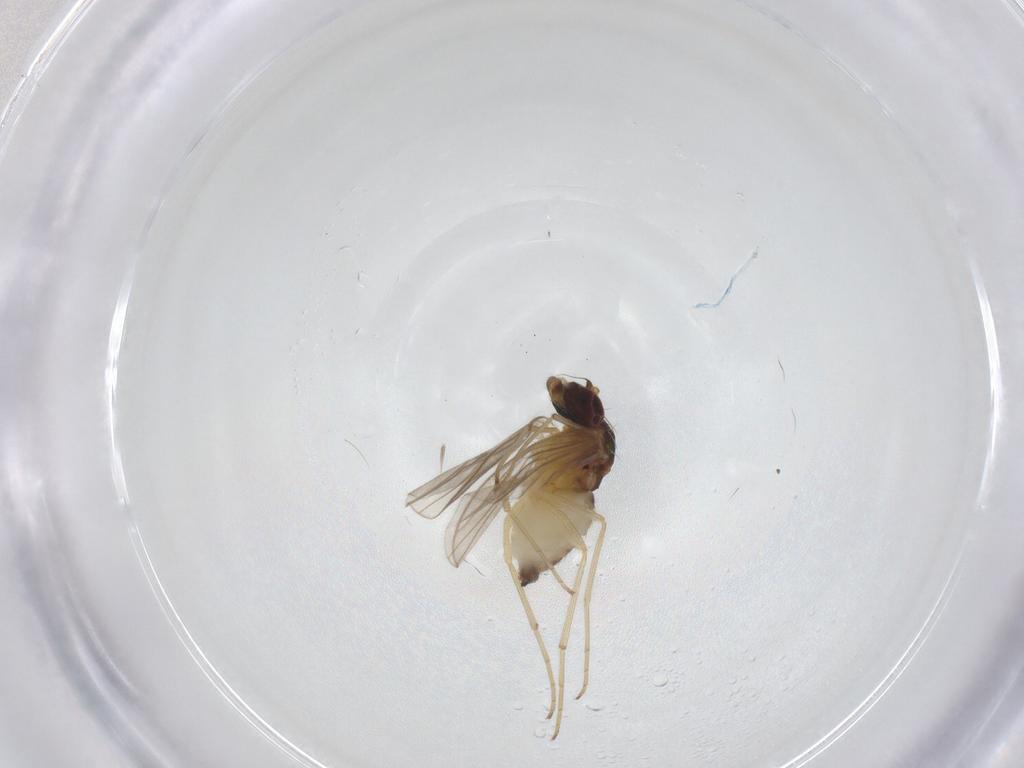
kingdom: Animalia
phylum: Arthropoda
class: Insecta
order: Diptera
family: Dolichopodidae
